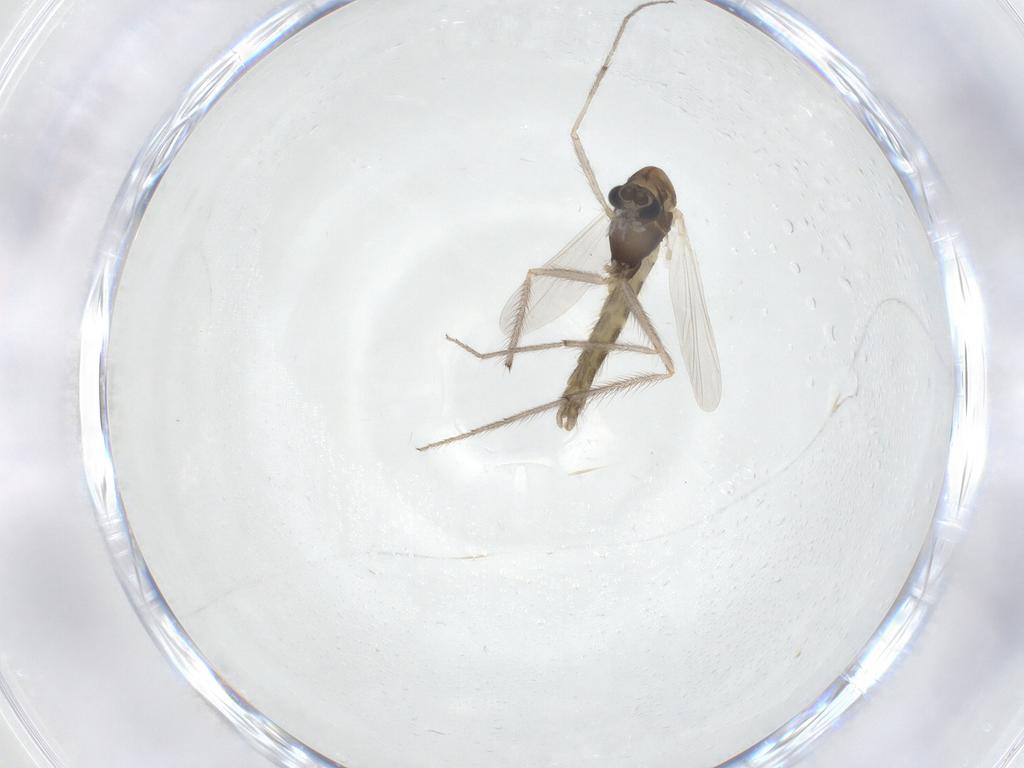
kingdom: Animalia
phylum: Arthropoda
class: Insecta
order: Diptera
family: Chironomidae
